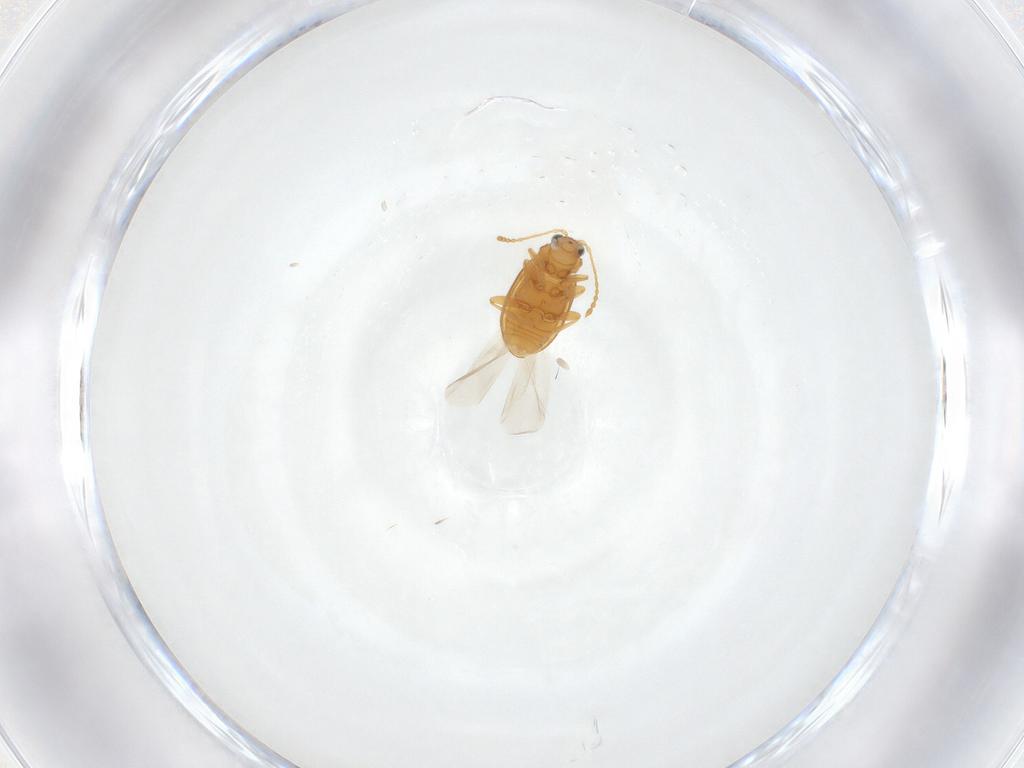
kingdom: Animalia
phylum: Arthropoda
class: Insecta
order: Coleoptera
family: Chrysomelidae
